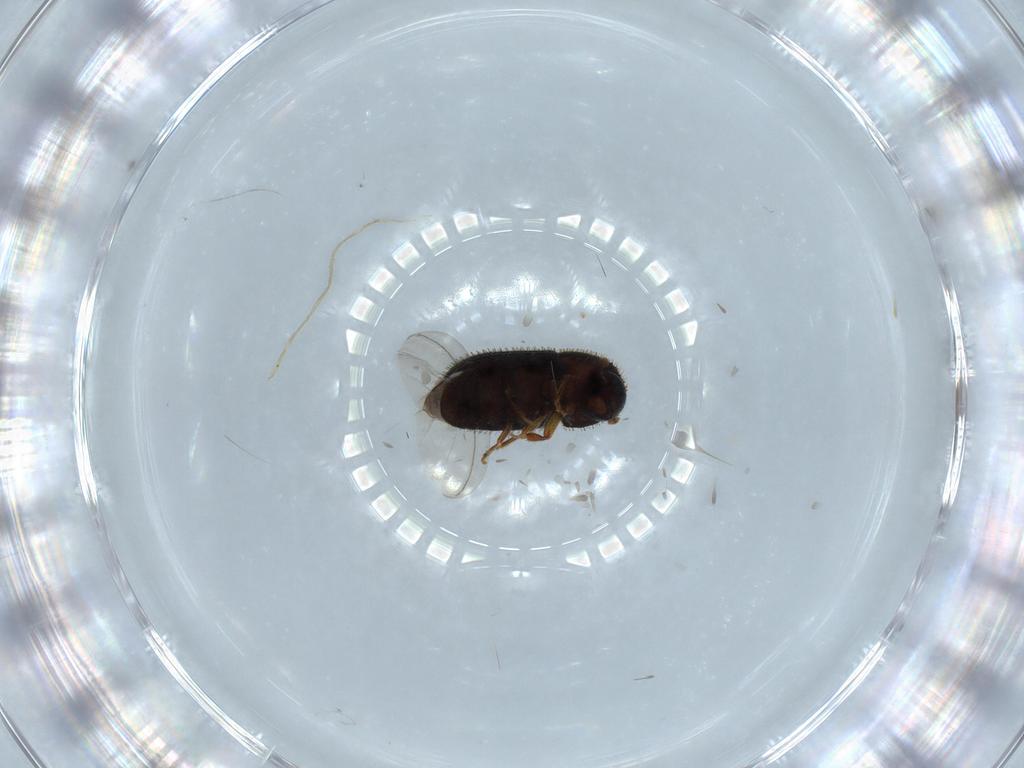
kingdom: Animalia
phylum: Arthropoda
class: Insecta
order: Coleoptera
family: Curculionidae
